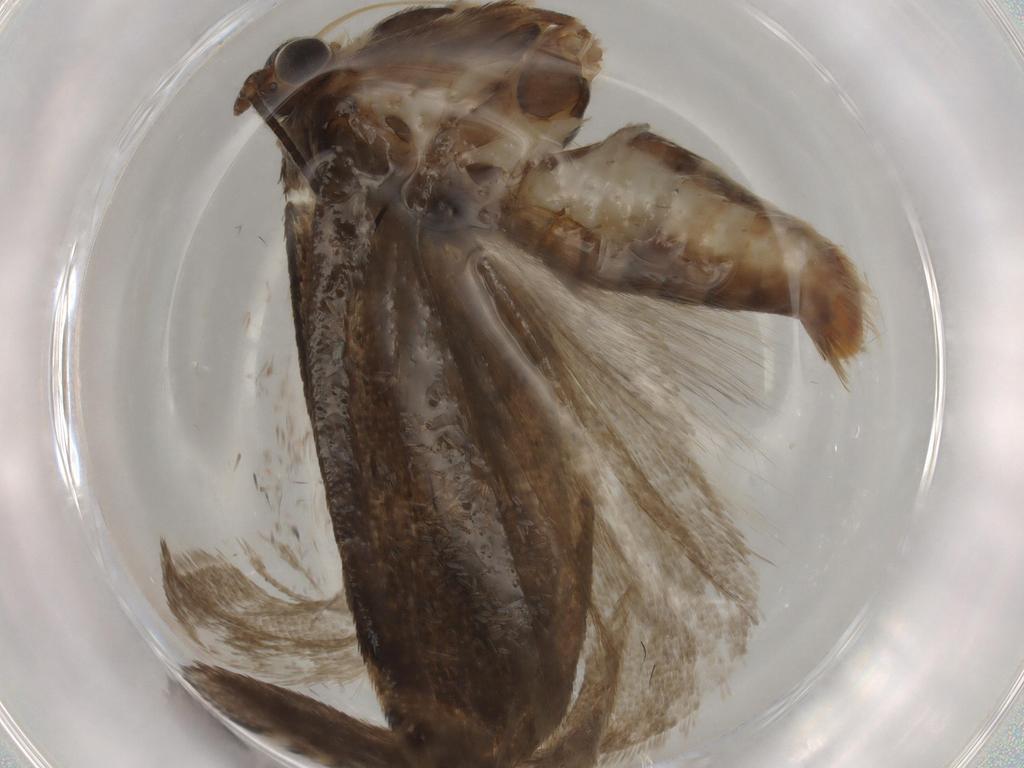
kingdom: Animalia
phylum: Arthropoda
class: Insecta
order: Lepidoptera
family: Tortricidae
